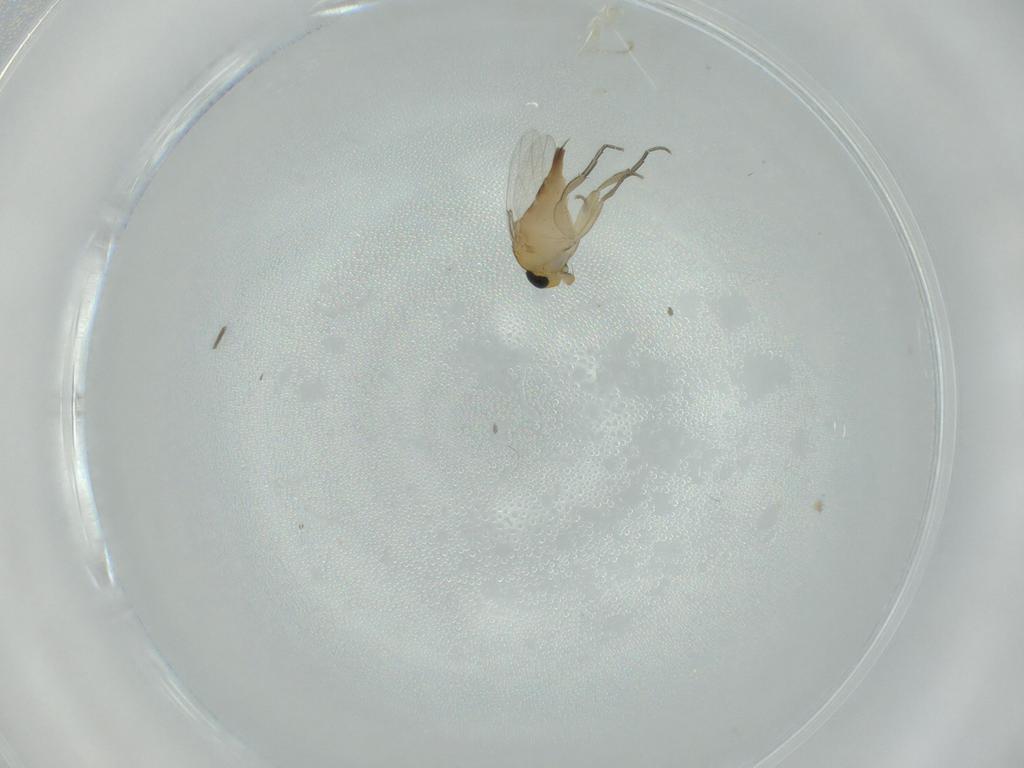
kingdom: Animalia
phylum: Arthropoda
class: Insecta
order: Diptera
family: Phoridae
